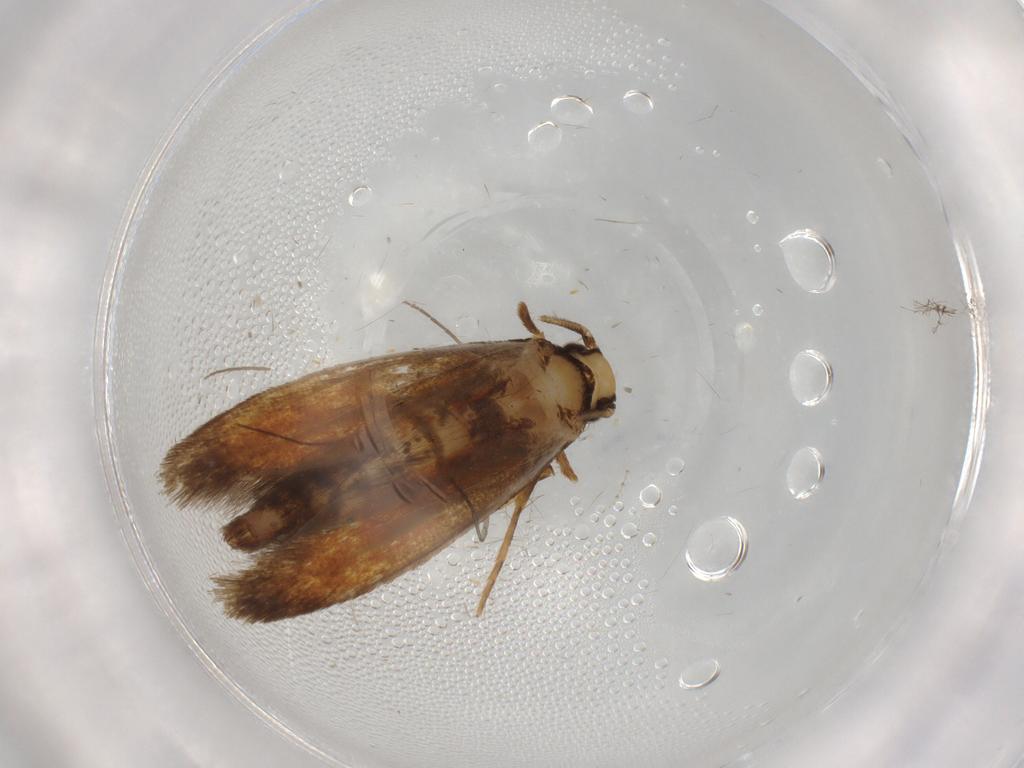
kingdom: Animalia
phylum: Arthropoda
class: Insecta
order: Lepidoptera
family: Tineidae
